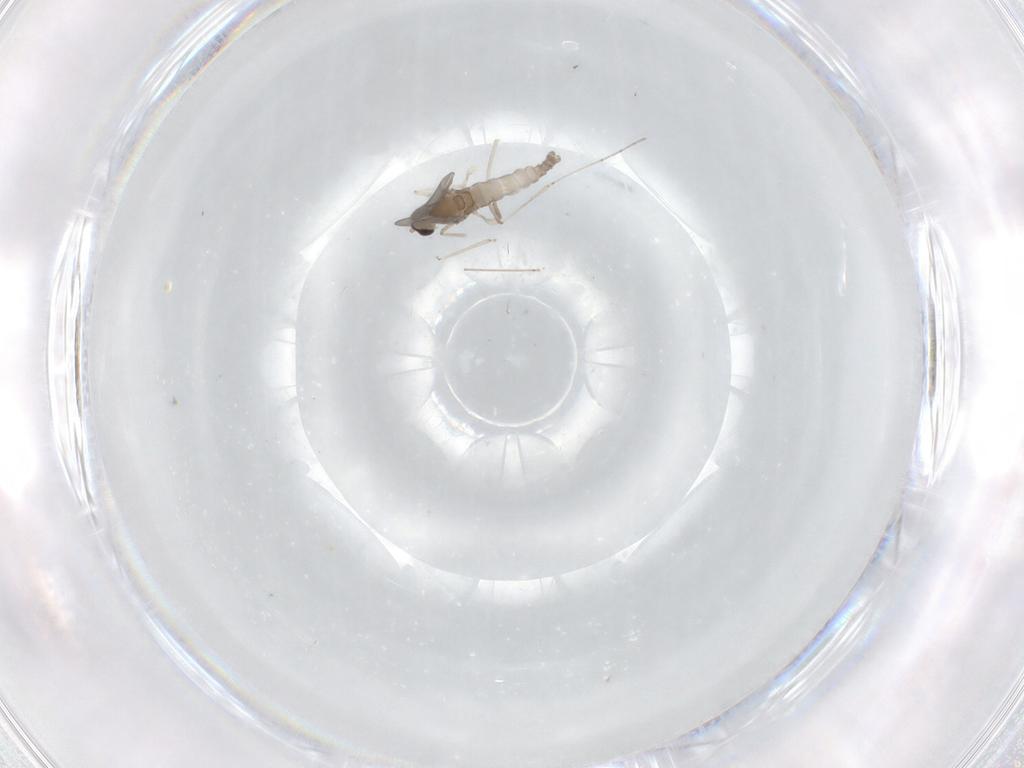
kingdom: Animalia
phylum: Arthropoda
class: Insecta
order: Diptera
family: Cecidomyiidae
